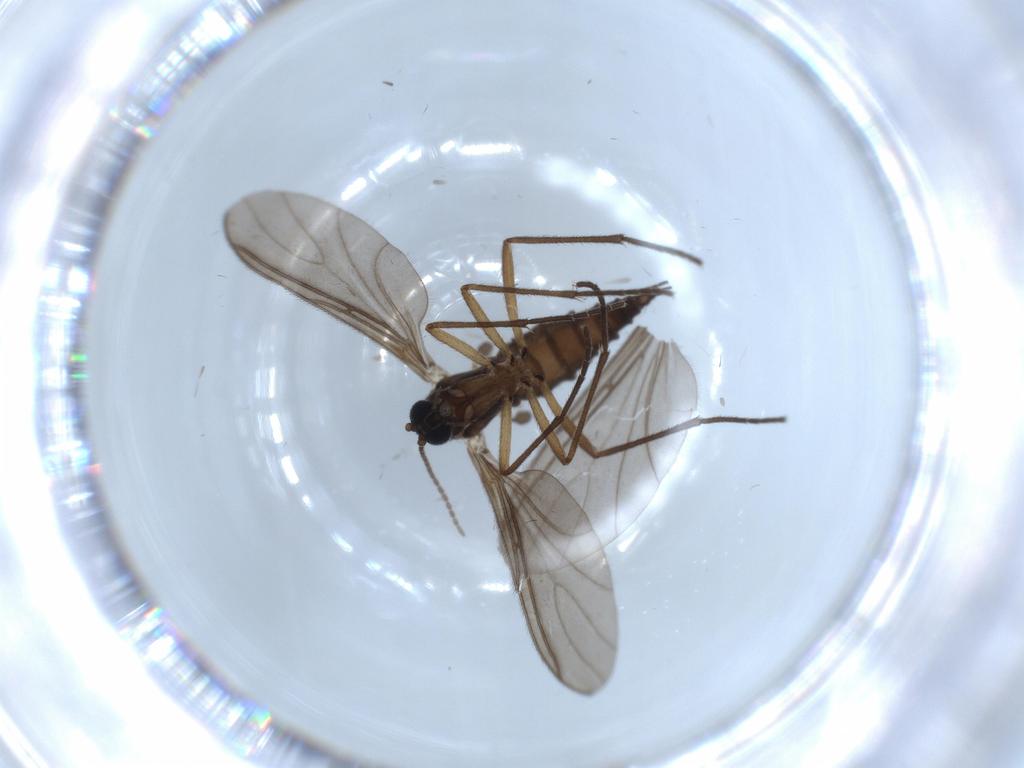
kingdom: Animalia
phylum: Arthropoda
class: Insecta
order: Diptera
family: Sciaridae
